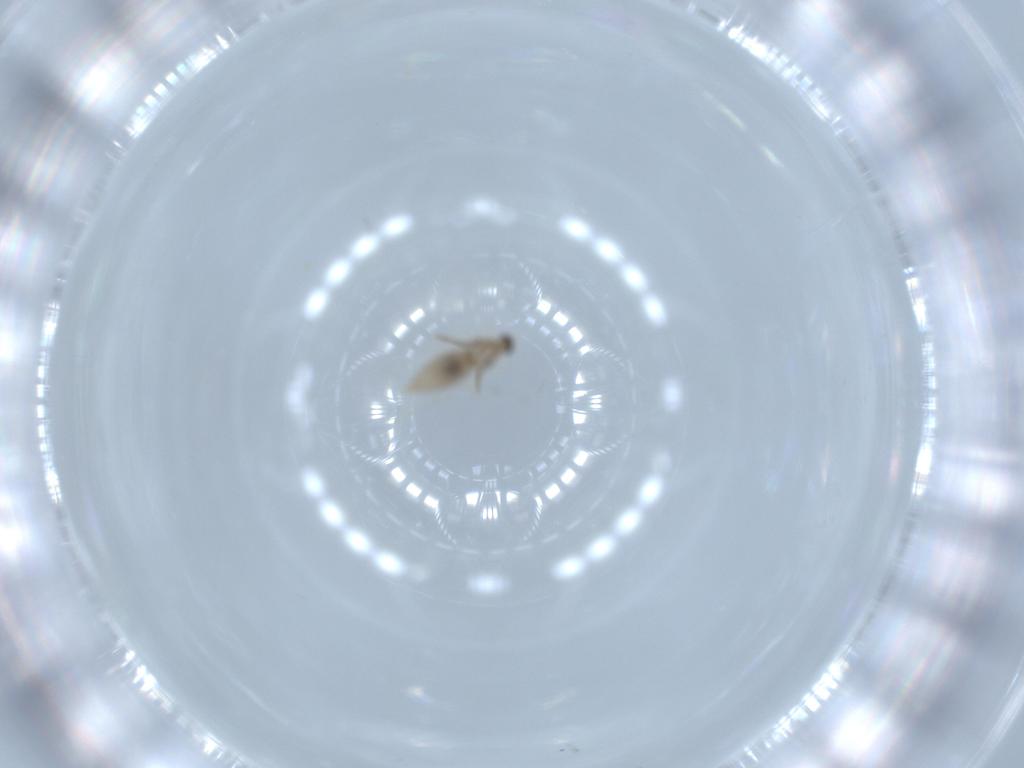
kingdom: Animalia
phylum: Arthropoda
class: Insecta
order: Diptera
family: Cecidomyiidae
